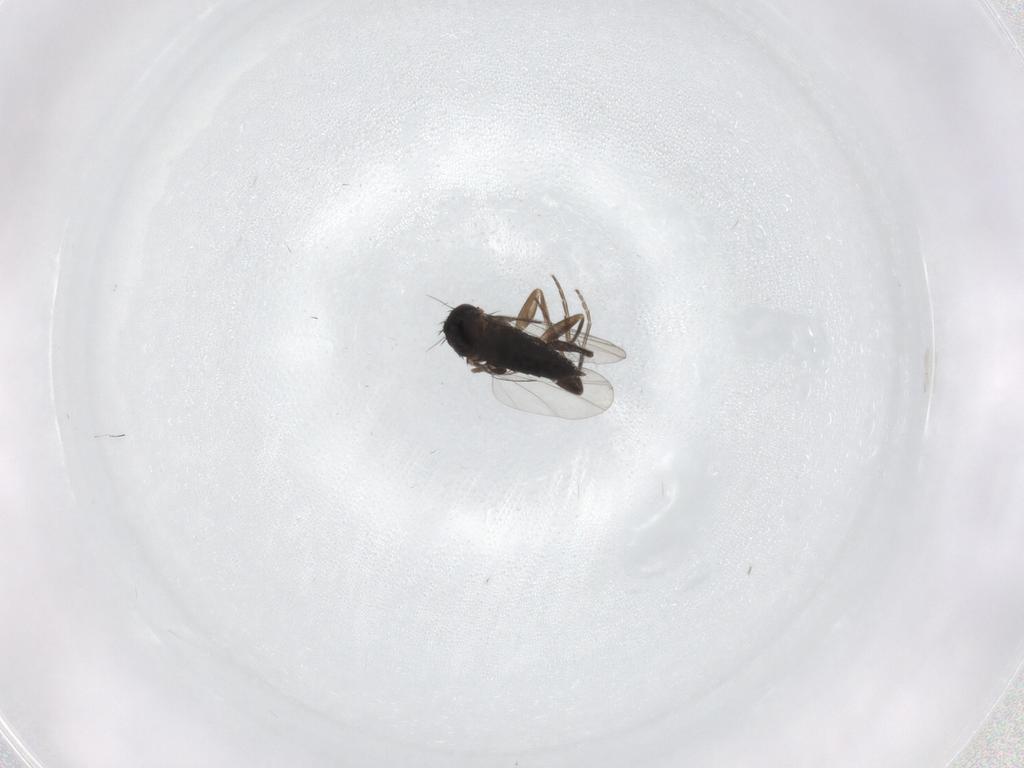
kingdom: Animalia
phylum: Arthropoda
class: Insecta
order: Diptera
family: Phoridae
